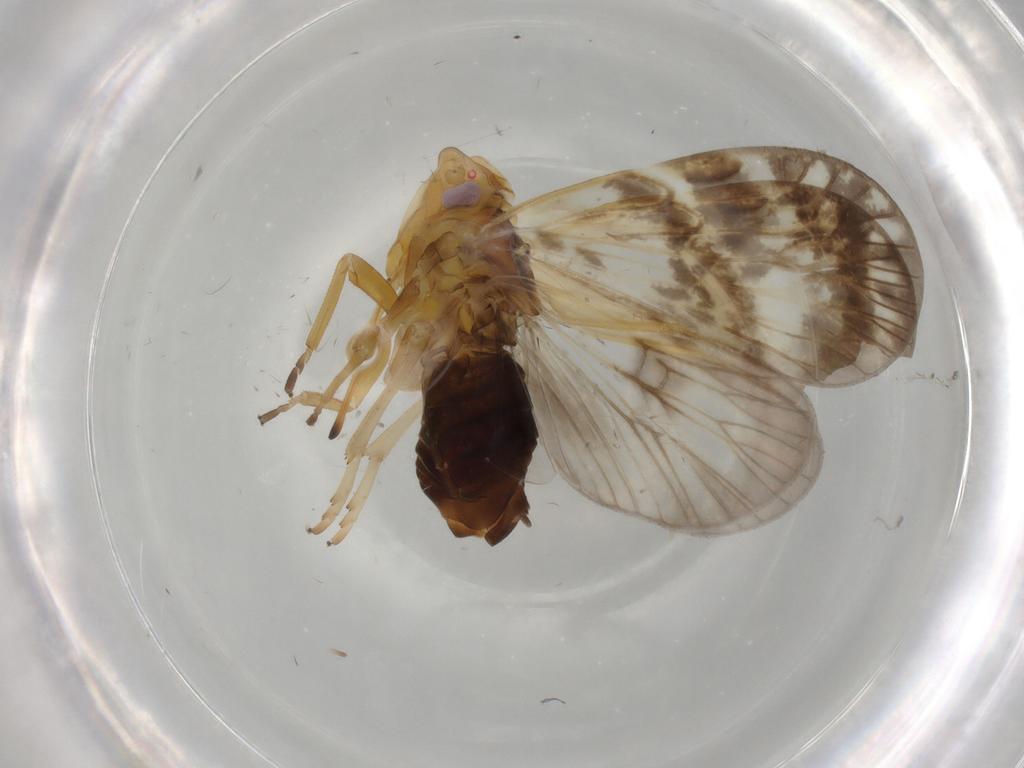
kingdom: Animalia
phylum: Arthropoda
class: Insecta
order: Hemiptera
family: Cixiidae
